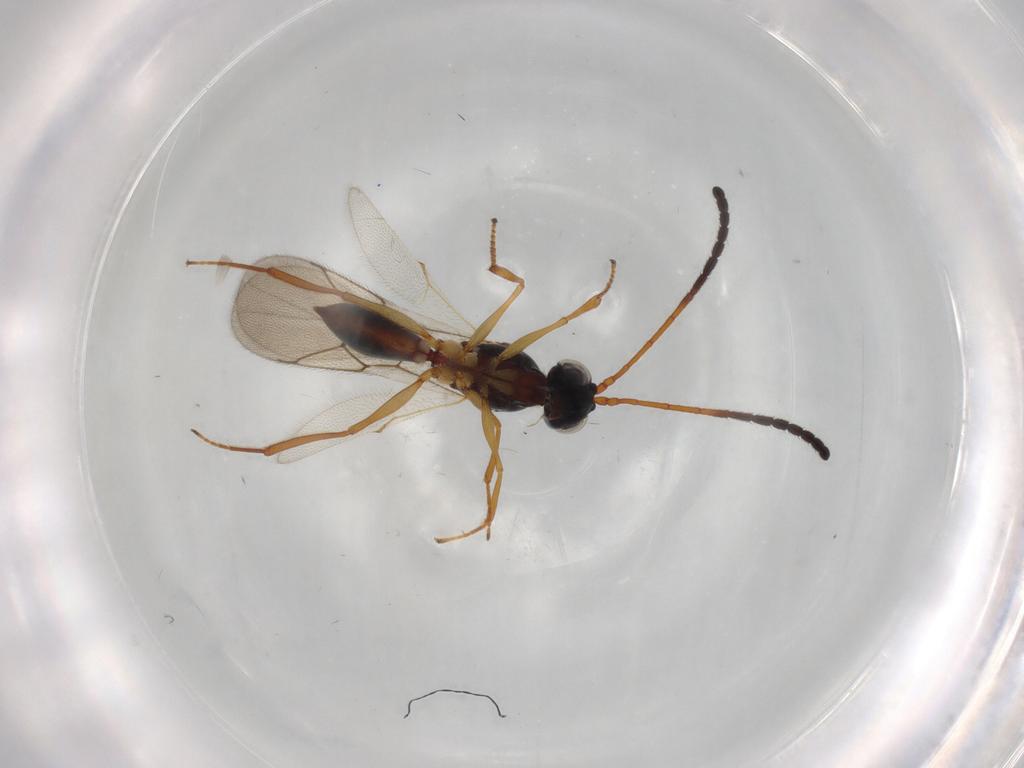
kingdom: Animalia
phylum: Arthropoda
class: Insecta
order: Hymenoptera
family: Figitidae
